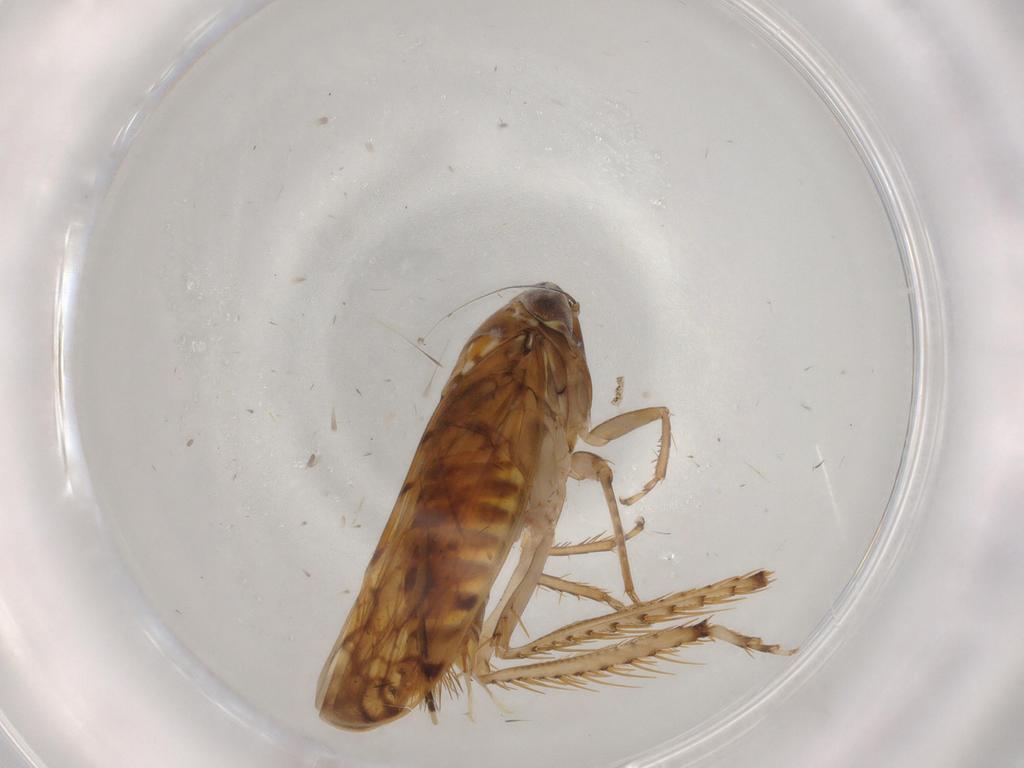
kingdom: Animalia
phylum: Arthropoda
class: Insecta
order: Hemiptera
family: Cicadellidae
